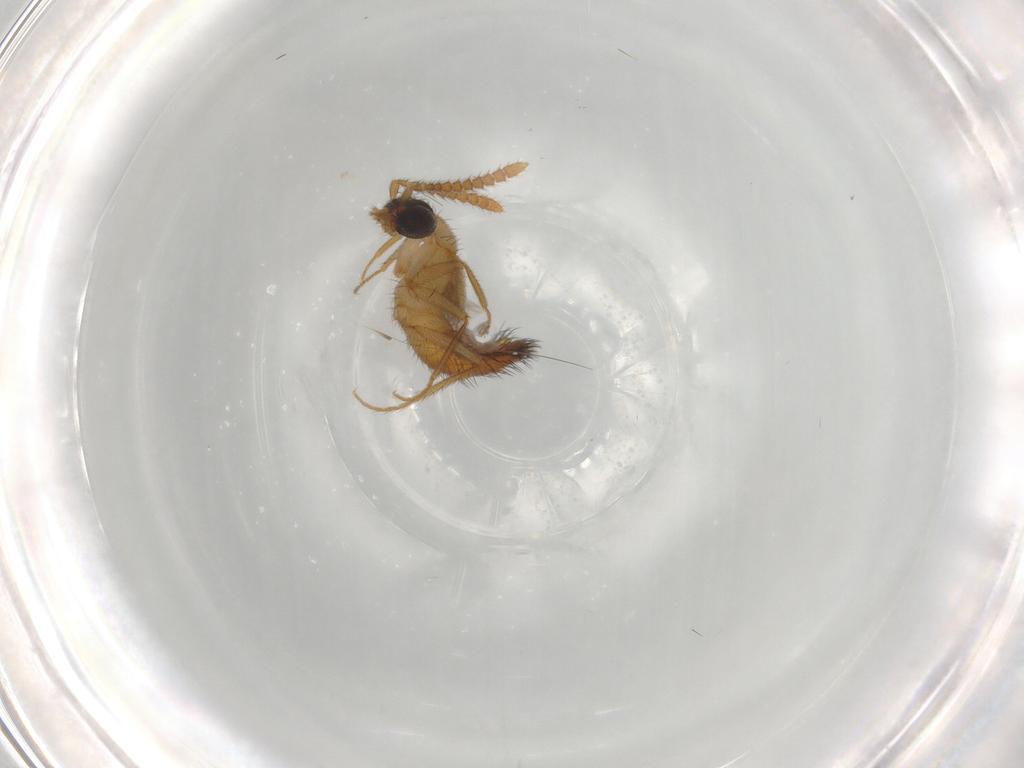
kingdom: Animalia
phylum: Arthropoda
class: Insecta
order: Coleoptera
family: Staphylinidae
